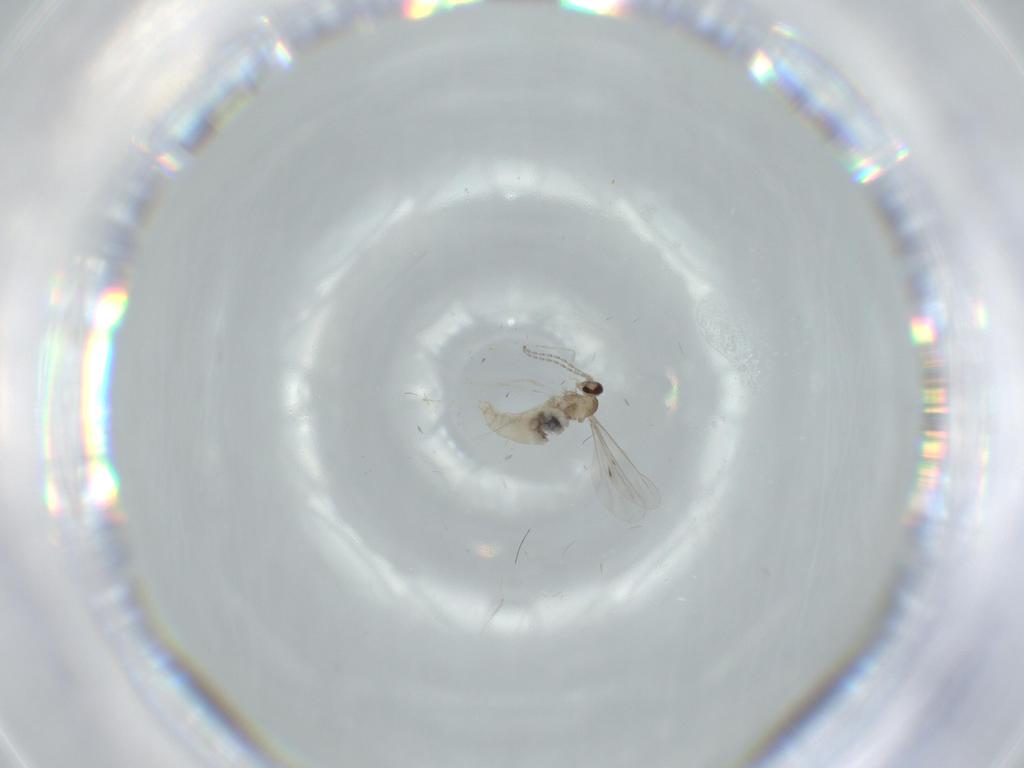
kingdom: Animalia
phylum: Arthropoda
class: Insecta
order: Diptera
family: Cecidomyiidae
